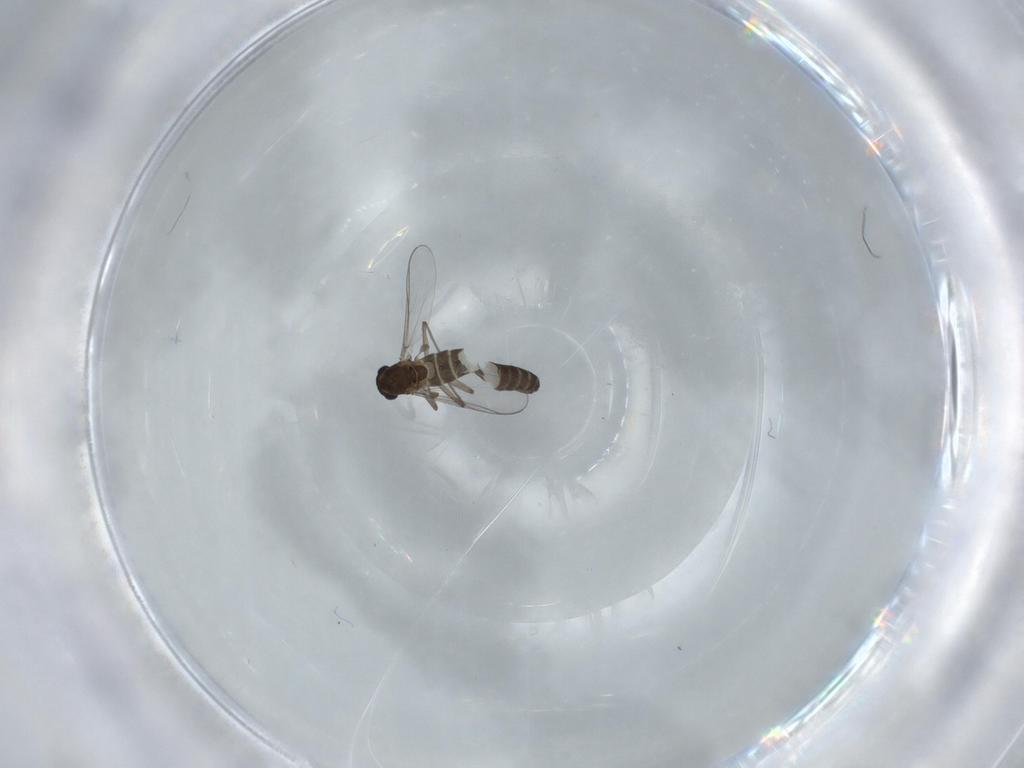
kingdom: Animalia
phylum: Arthropoda
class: Insecta
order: Diptera
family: Chironomidae
